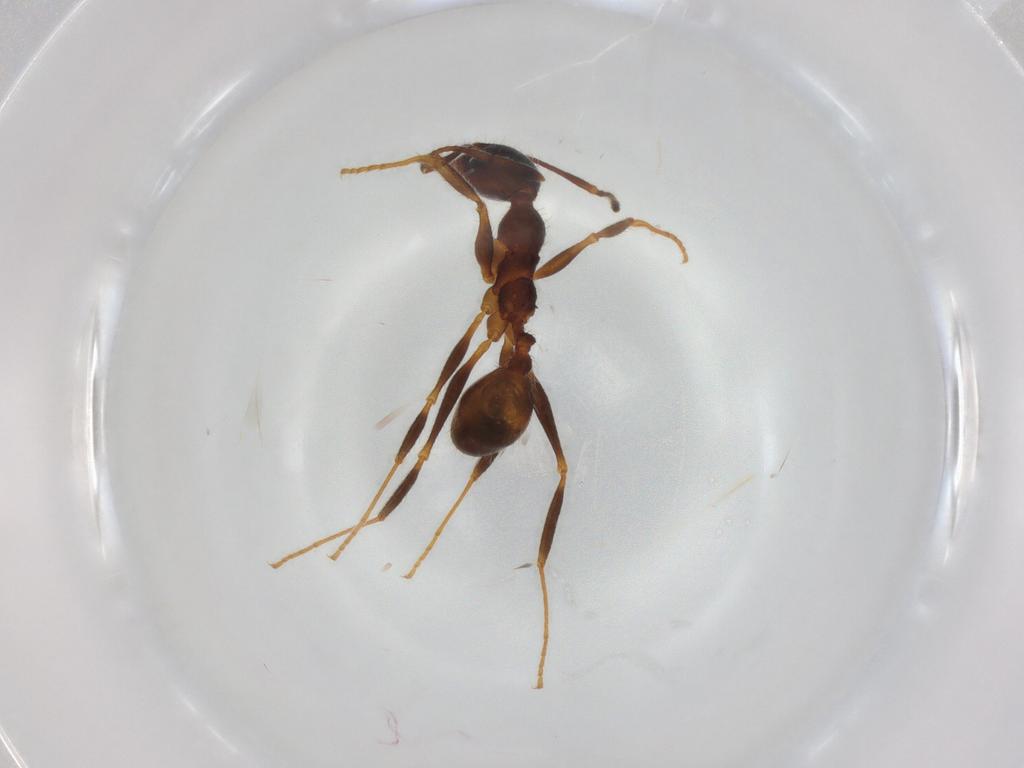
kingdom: Animalia
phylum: Arthropoda
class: Insecta
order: Hymenoptera
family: Formicidae
